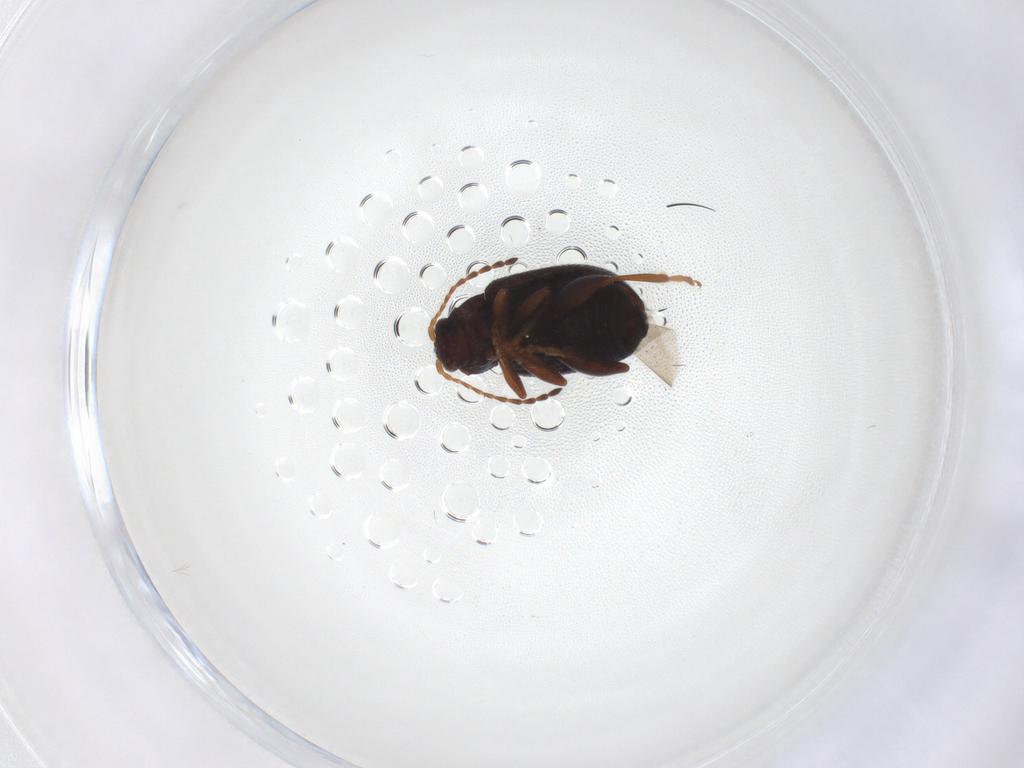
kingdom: Animalia
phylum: Arthropoda
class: Insecta
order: Coleoptera
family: Chrysomelidae
